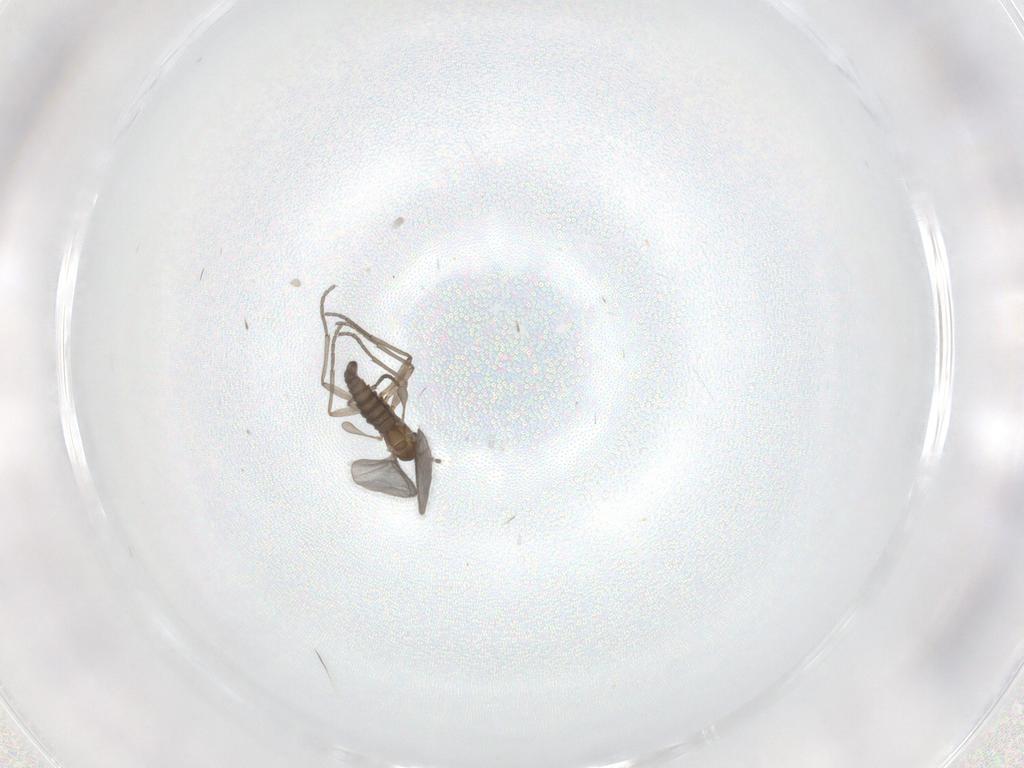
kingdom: Animalia
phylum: Arthropoda
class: Insecta
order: Diptera
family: Sciaridae
